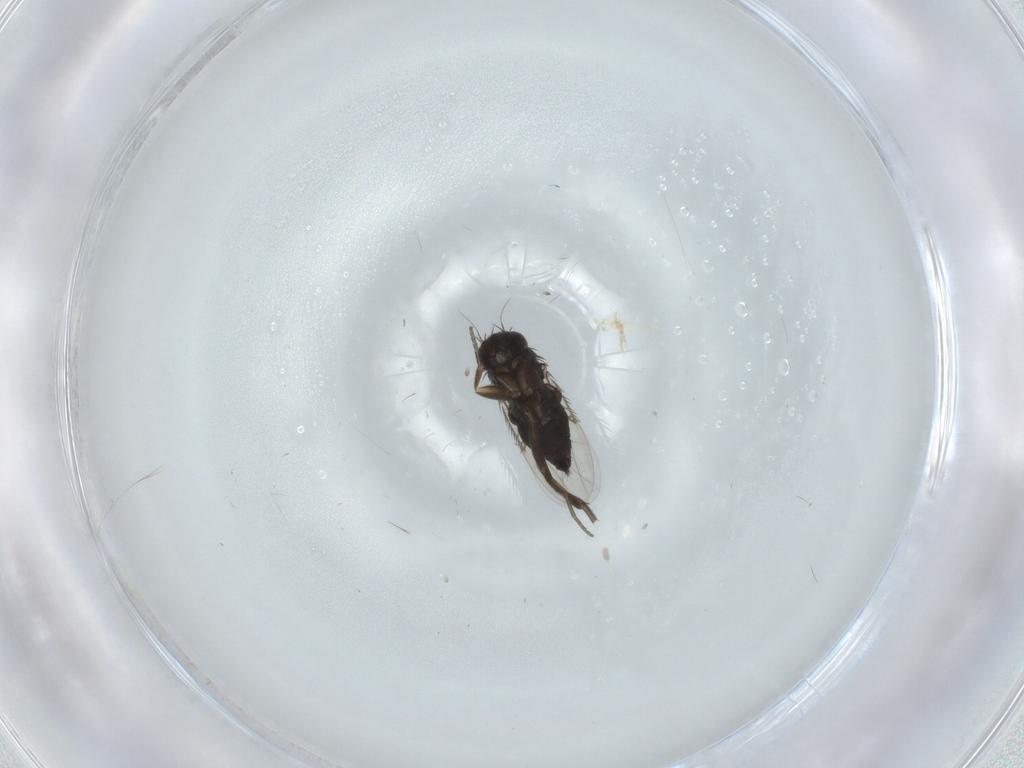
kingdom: Animalia
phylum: Arthropoda
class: Insecta
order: Diptera
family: Phoridae
